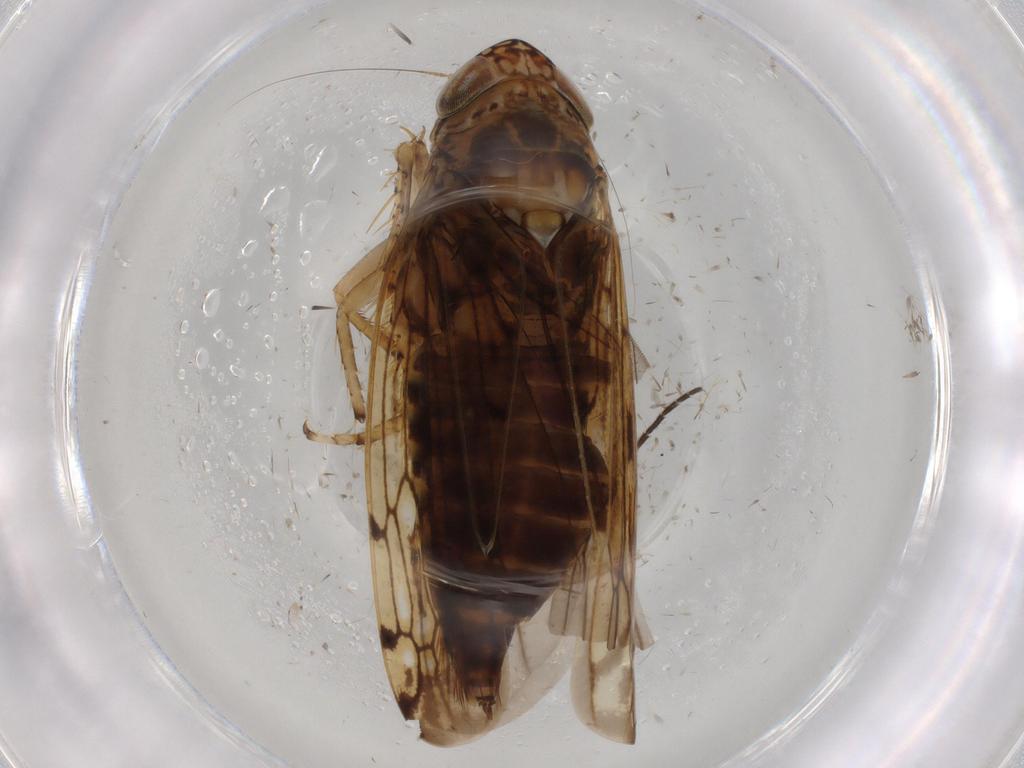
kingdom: Animalia
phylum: Arthropoda
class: Insecta
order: Hemiptera
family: Cicadellidae
